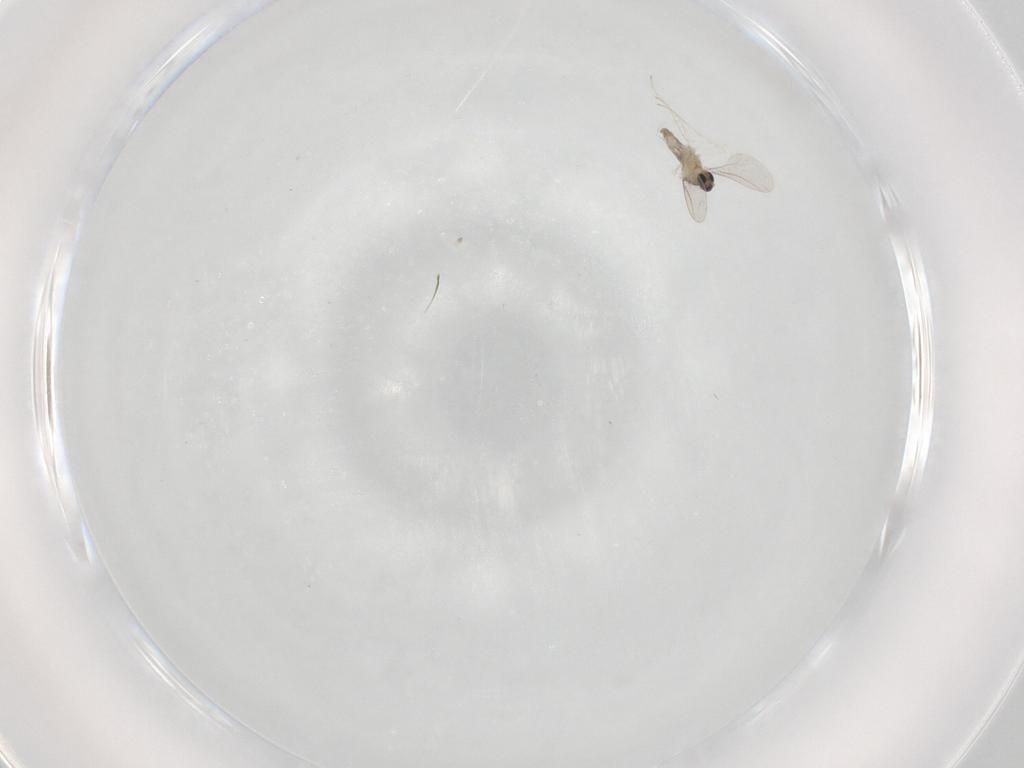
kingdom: Animalia
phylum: Arthropoda
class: Insecta
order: Diptera
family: Cecidomyiidae
